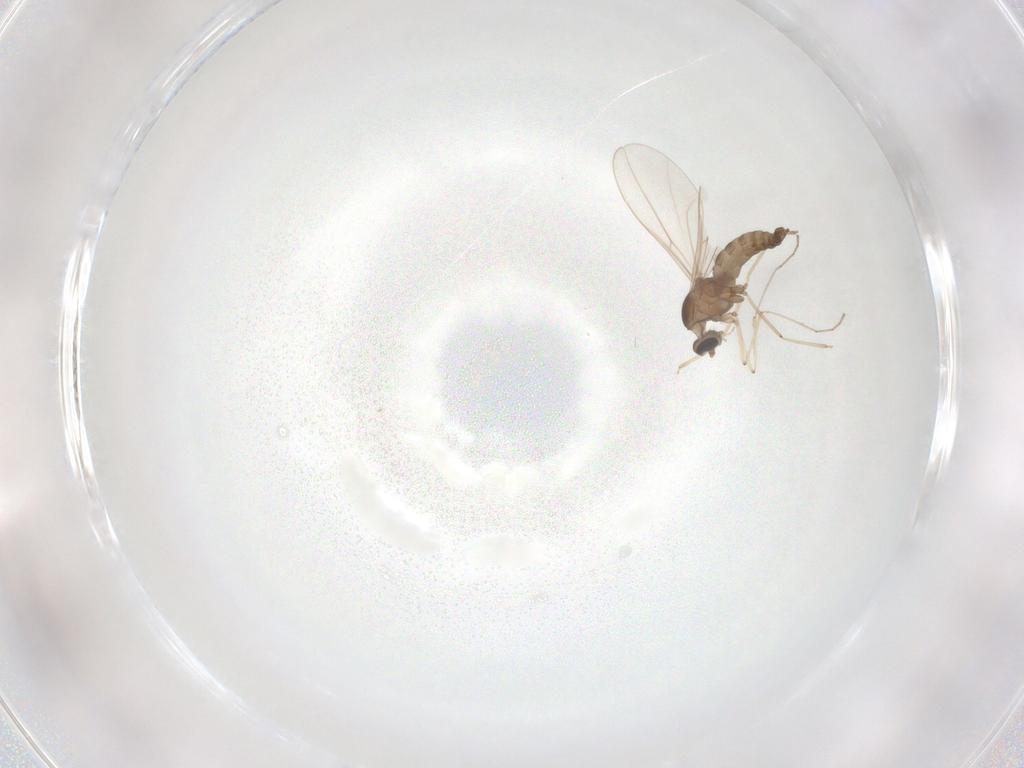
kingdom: Animalia
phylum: Arthropoda
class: Insecta
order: Diptera
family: Cecidomyiidae
